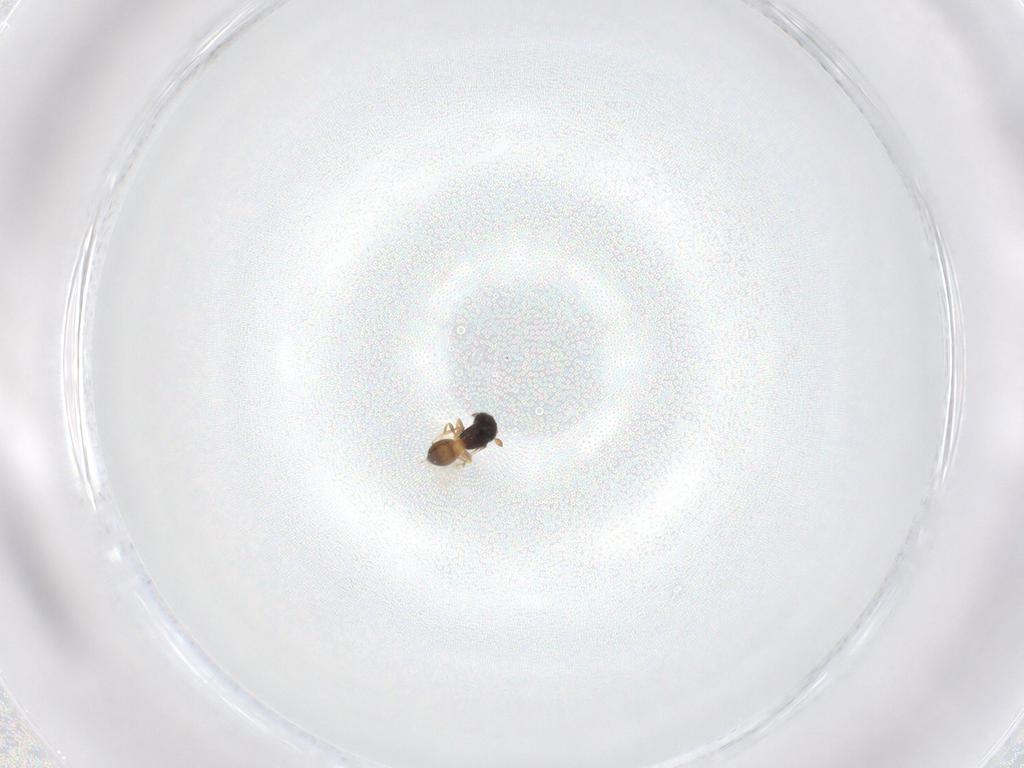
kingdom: Animalia
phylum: Arthropoda
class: Insecta
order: Hymenoptera
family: Scelionidae
